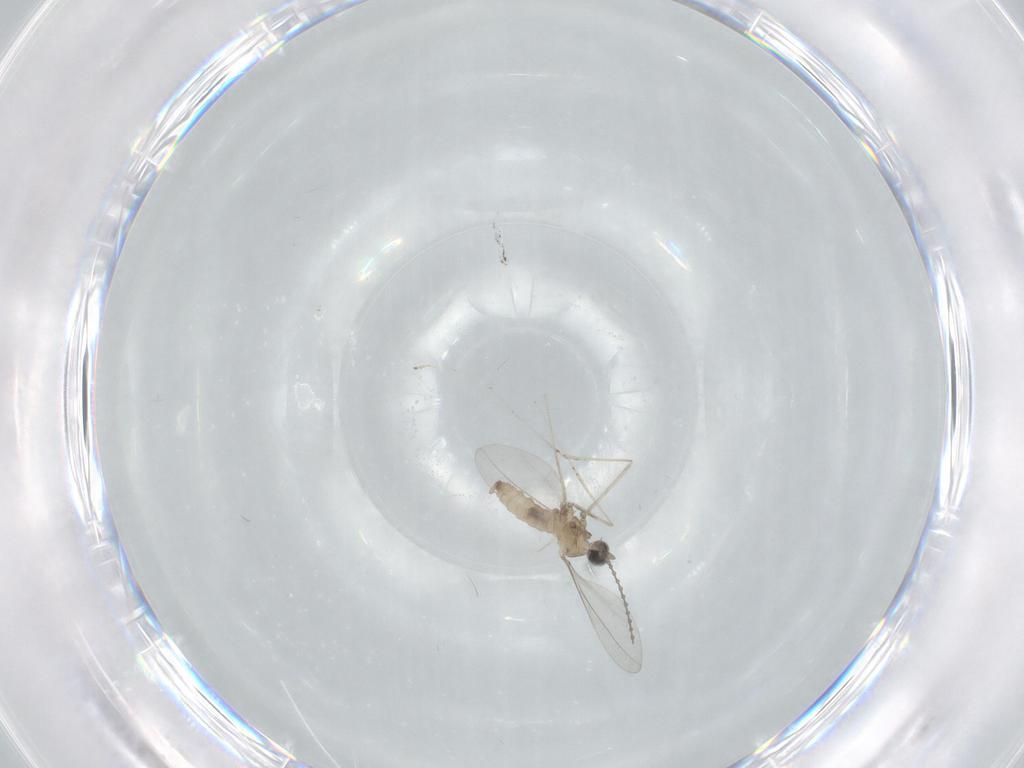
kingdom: Animalia
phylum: Arthropoda
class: Insecta
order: Diptera
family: Cecidomyiidae
